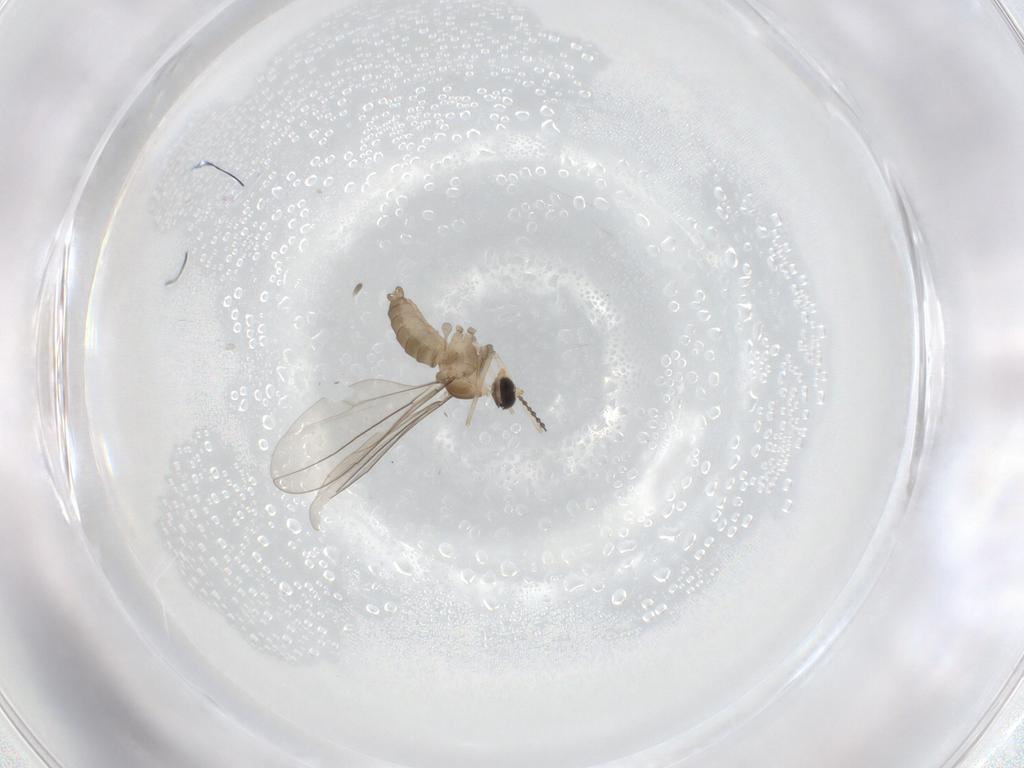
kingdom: Animalia
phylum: Arthropoda
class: Insecta
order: Diptera
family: Cecidomyiidae
